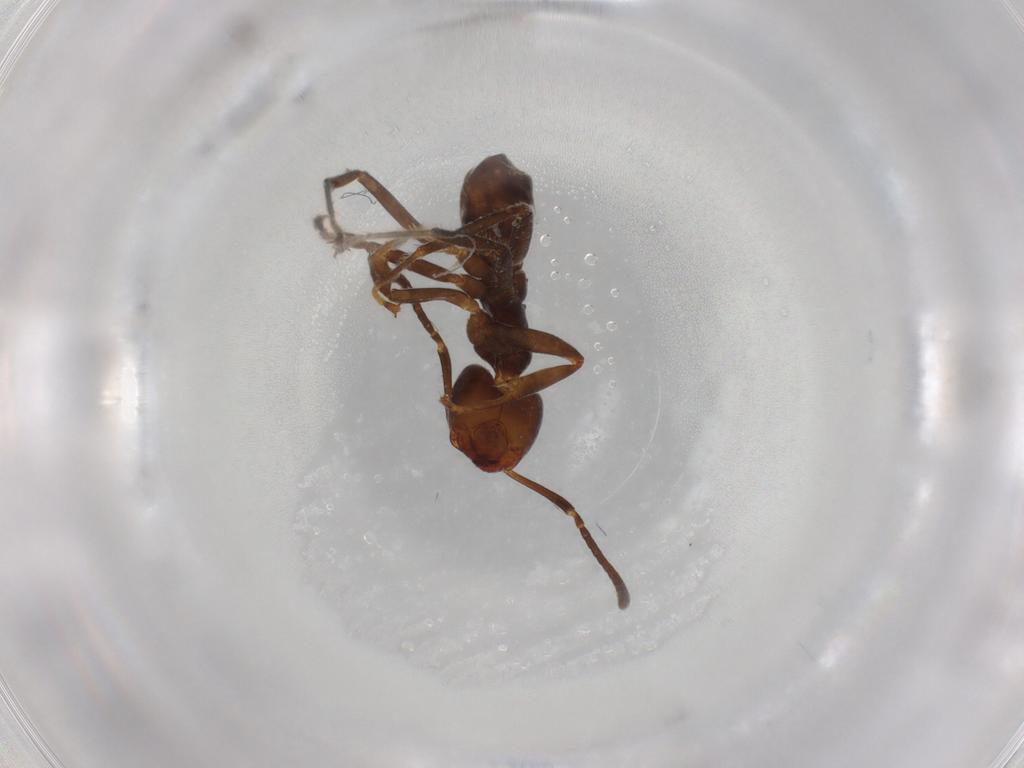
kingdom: Animalia
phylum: Arthropoda
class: Insecta
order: Hymenoptera
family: Formicidae
